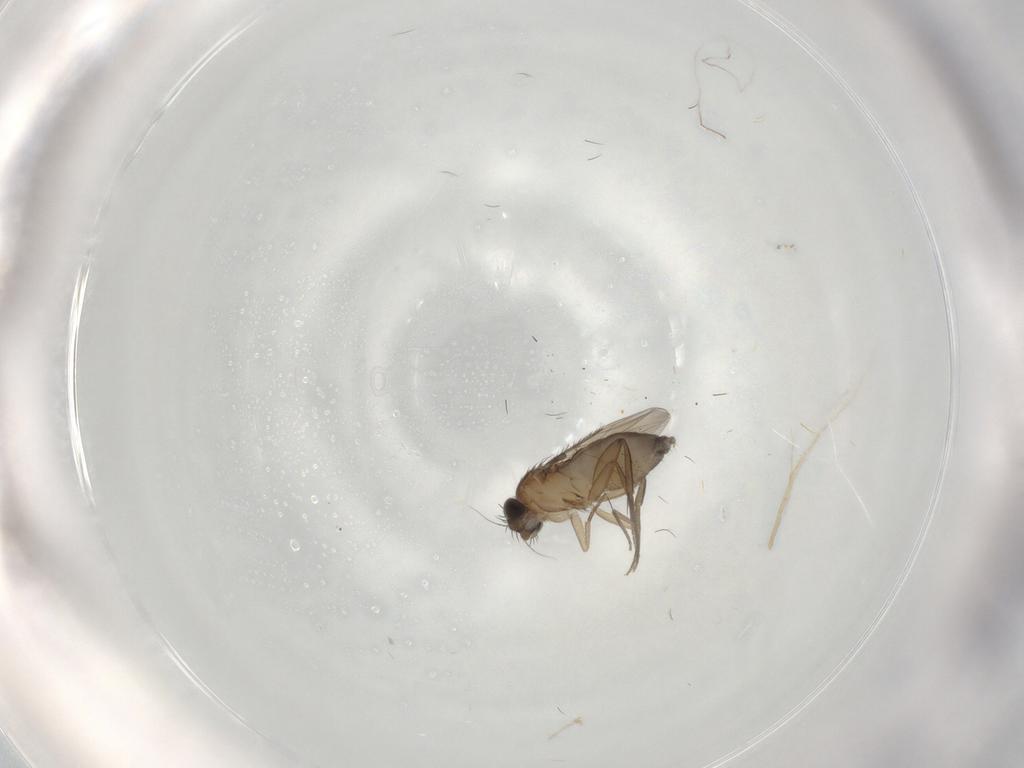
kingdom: Animalia
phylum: Arthropoda
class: Insecta
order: Diptera
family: Phoridae
